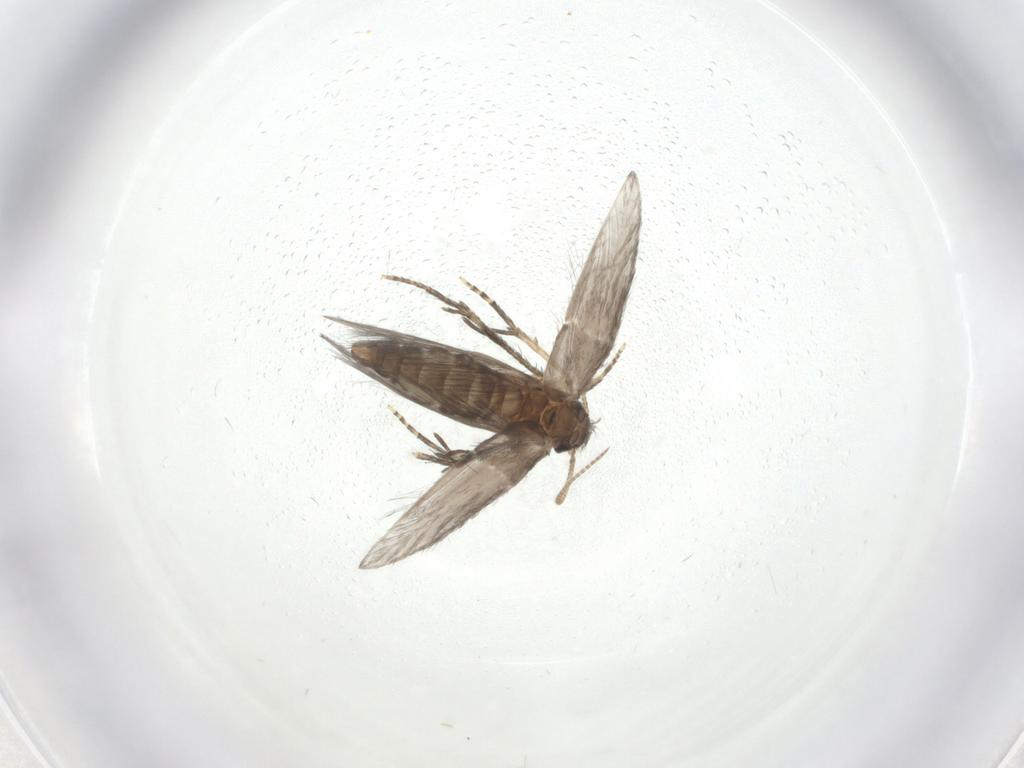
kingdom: Animalia
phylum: Arthropoda
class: Insecta
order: Trichoptera
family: Hydroptilidae
